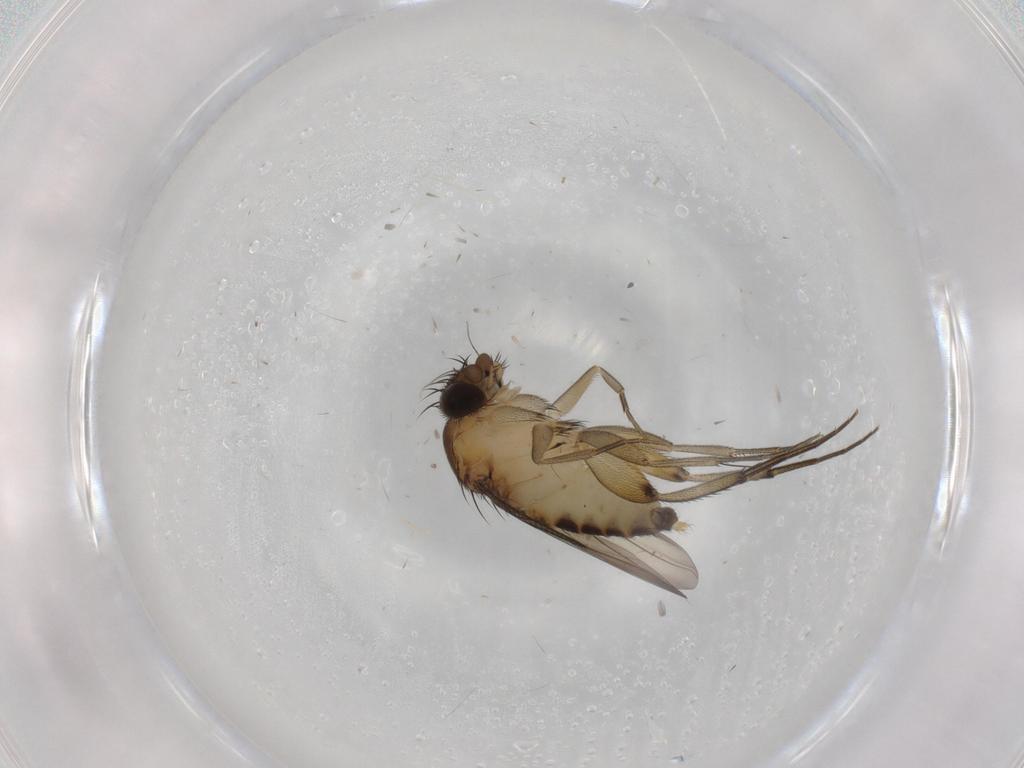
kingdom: Animalia
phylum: Arthropoda
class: Insecta
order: Diptera
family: Phoridae
